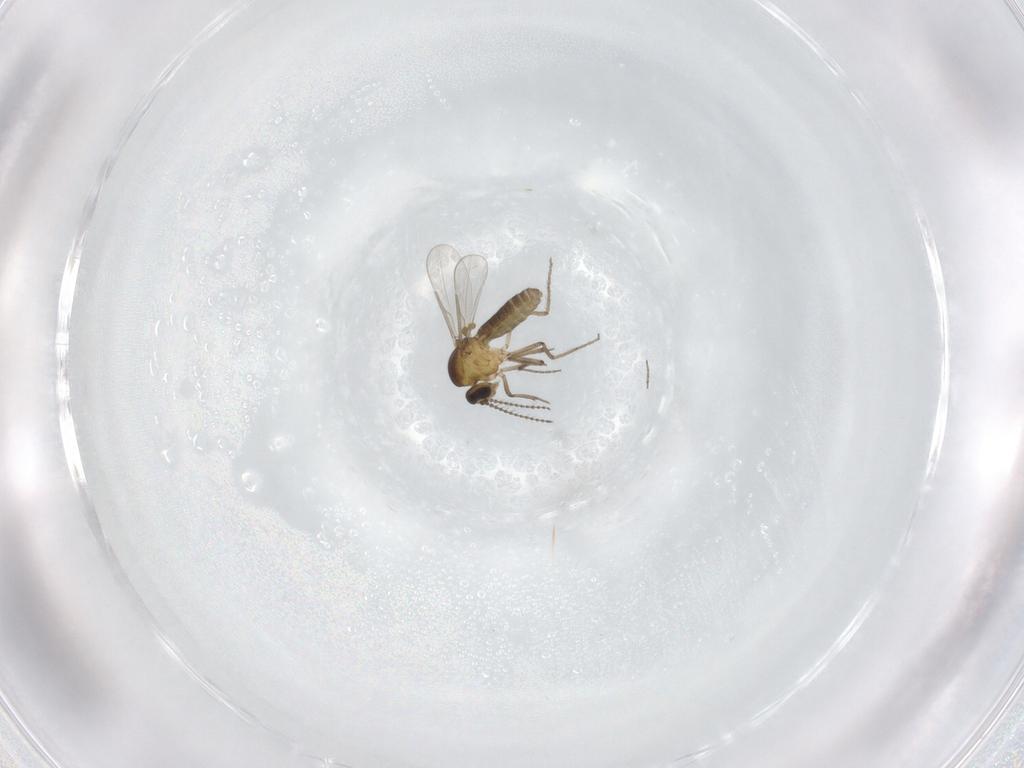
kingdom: Animalia
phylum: Arthropoda
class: Insecta
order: Diptera
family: Ceratopogonidae
